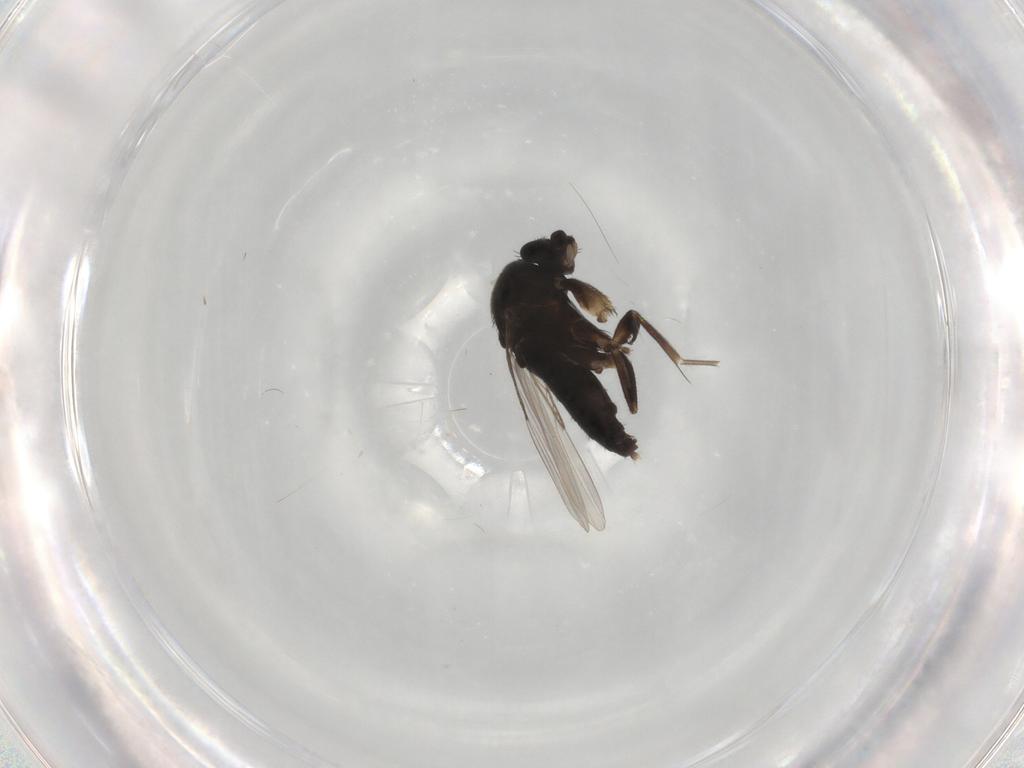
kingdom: Animalia
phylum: Arthropoda
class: Insecta
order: Diptera
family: Phoridae
